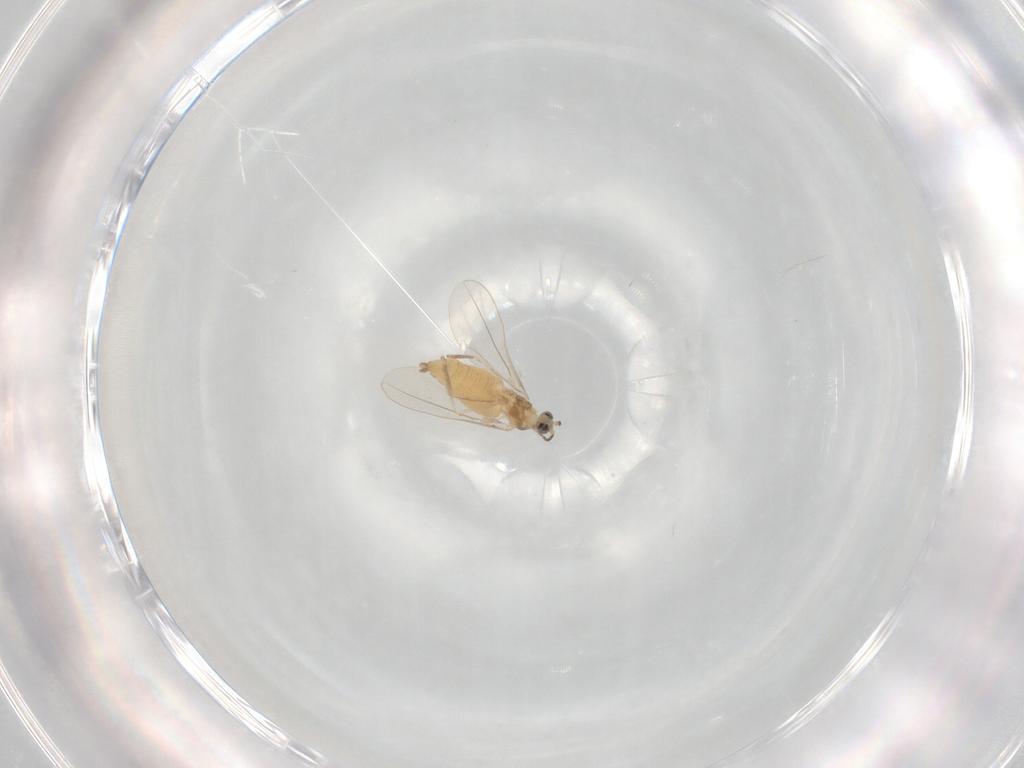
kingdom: Animalia
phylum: Arthropoda
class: Insecta
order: Diptera
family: Cecidomyiidae
